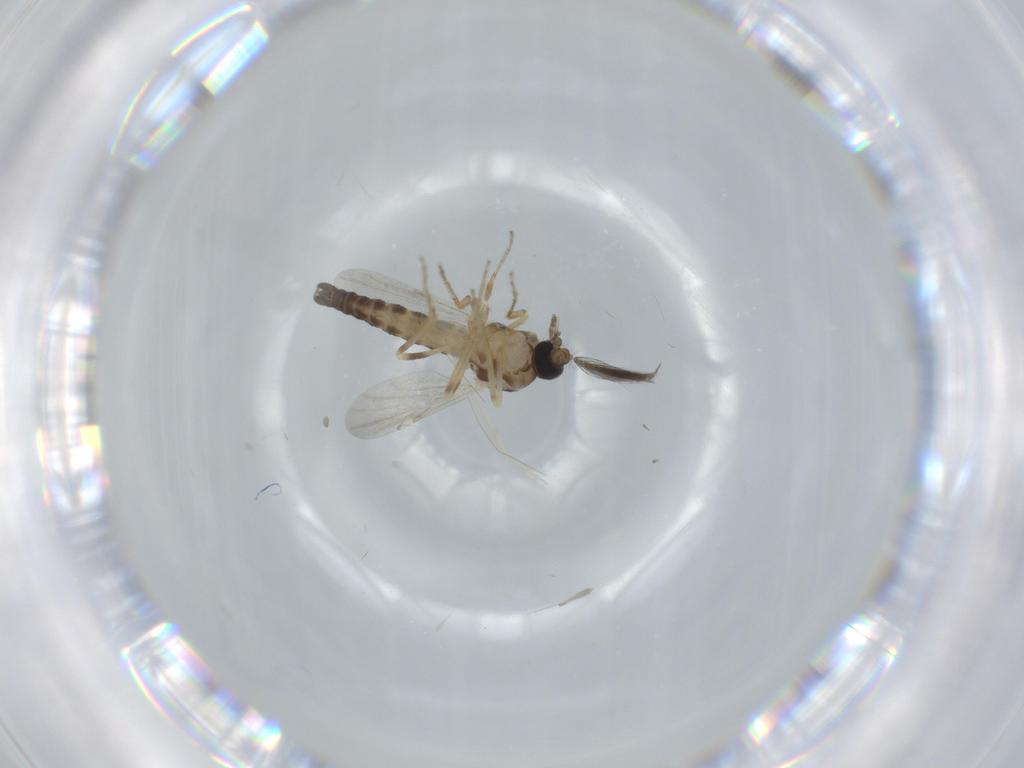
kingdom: Animalia
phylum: Arthropoda
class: Insecta
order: Diptera
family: Ceratopogonidae
